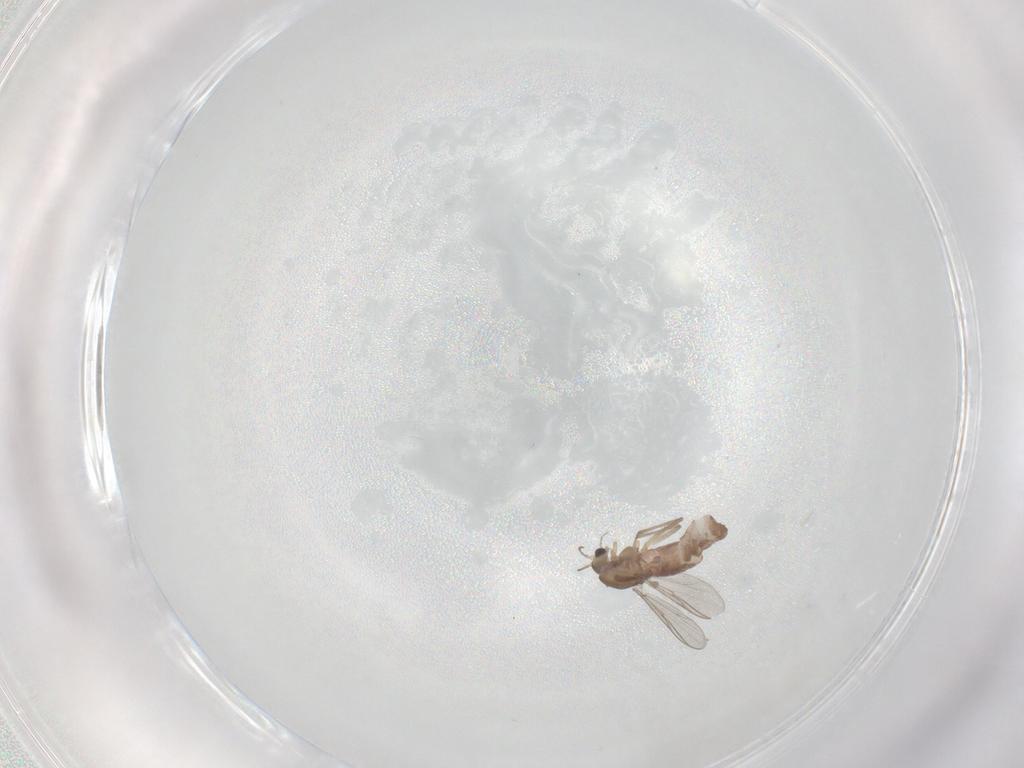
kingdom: Animalia
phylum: Arthropoda
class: Insecta
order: Diptera
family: Chironomidae
